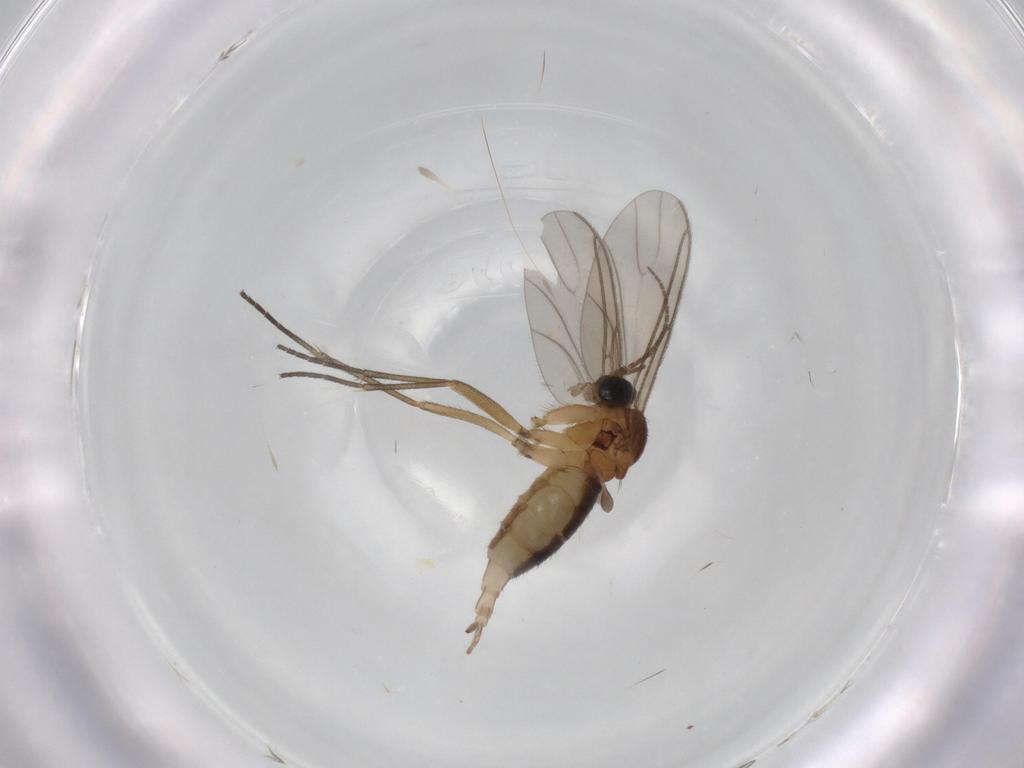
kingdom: Animalia
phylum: Arthropoda
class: Insecta
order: Diptera
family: Sciaridae
